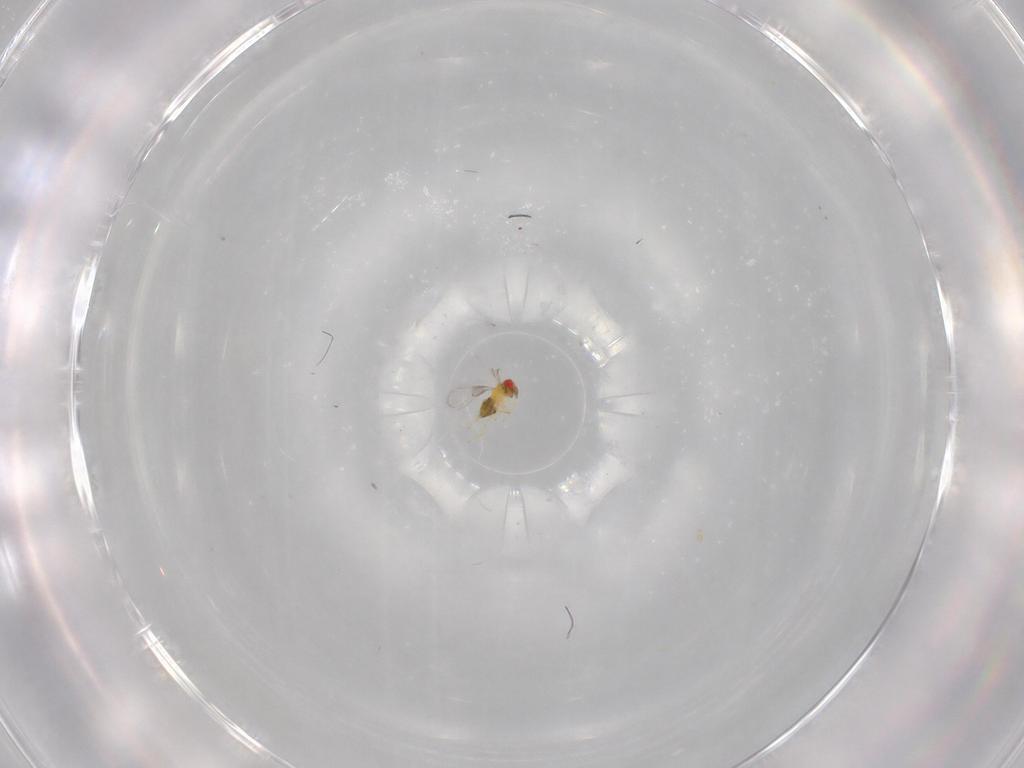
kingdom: Animalia
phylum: Arthropoda
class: Insecta
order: Hymenoptera
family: Trichogrammatidae
